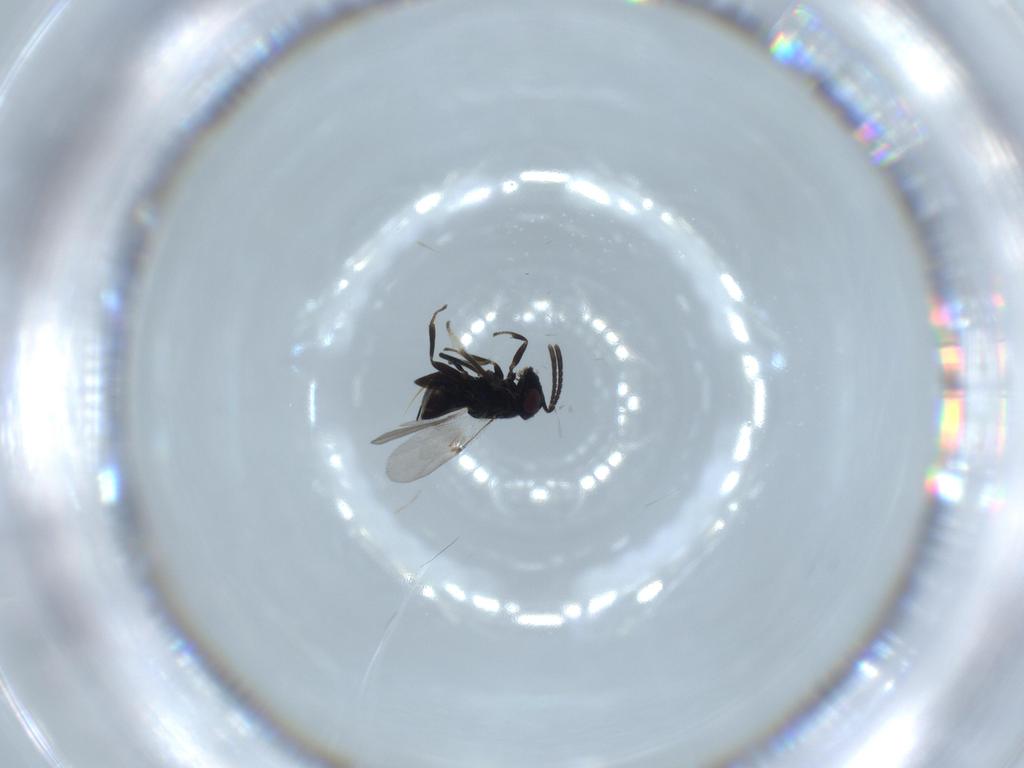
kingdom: Animalia
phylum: Arthropoda
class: Insecta
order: Hymenoptera
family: Encyrtidae
